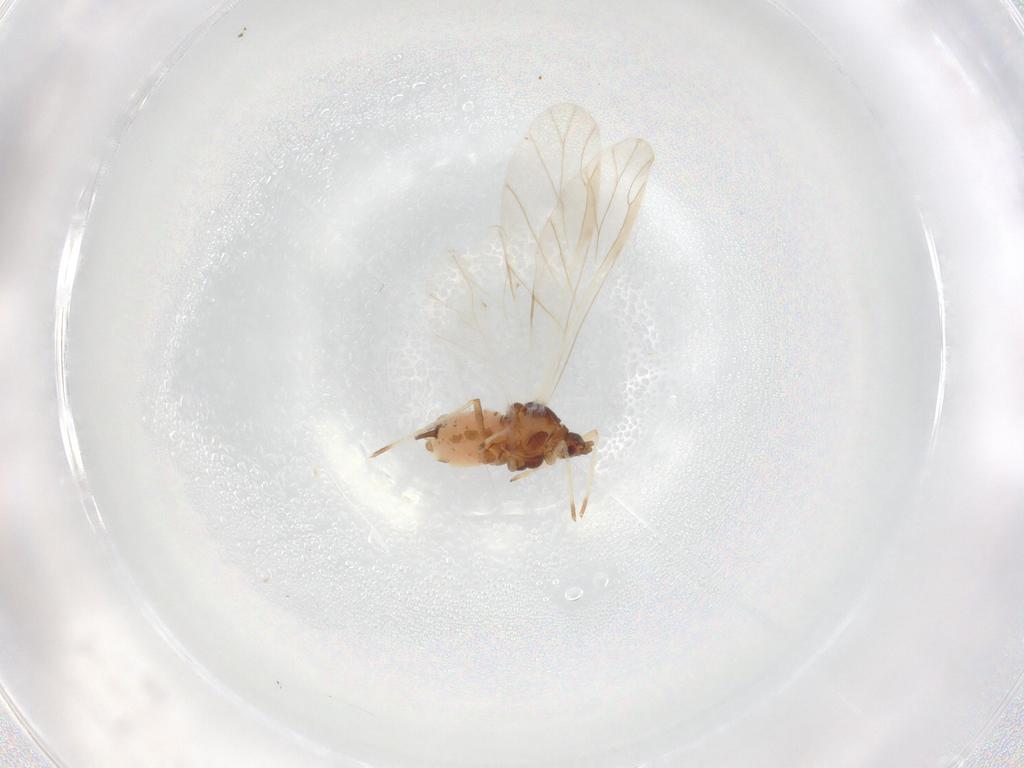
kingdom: Animalia
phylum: Arthropoda
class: Insecta
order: Hemiptera
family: Aphididae
